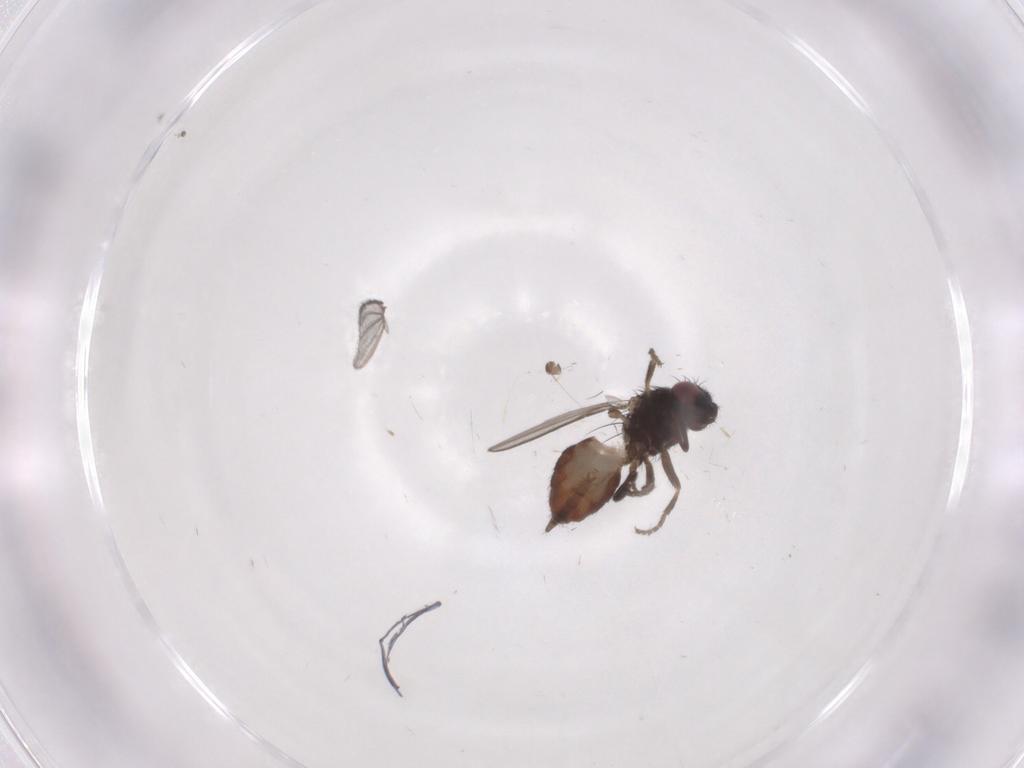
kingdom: Animalia
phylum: Arthropoda
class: Insecta
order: Diptera
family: Milichiidae
